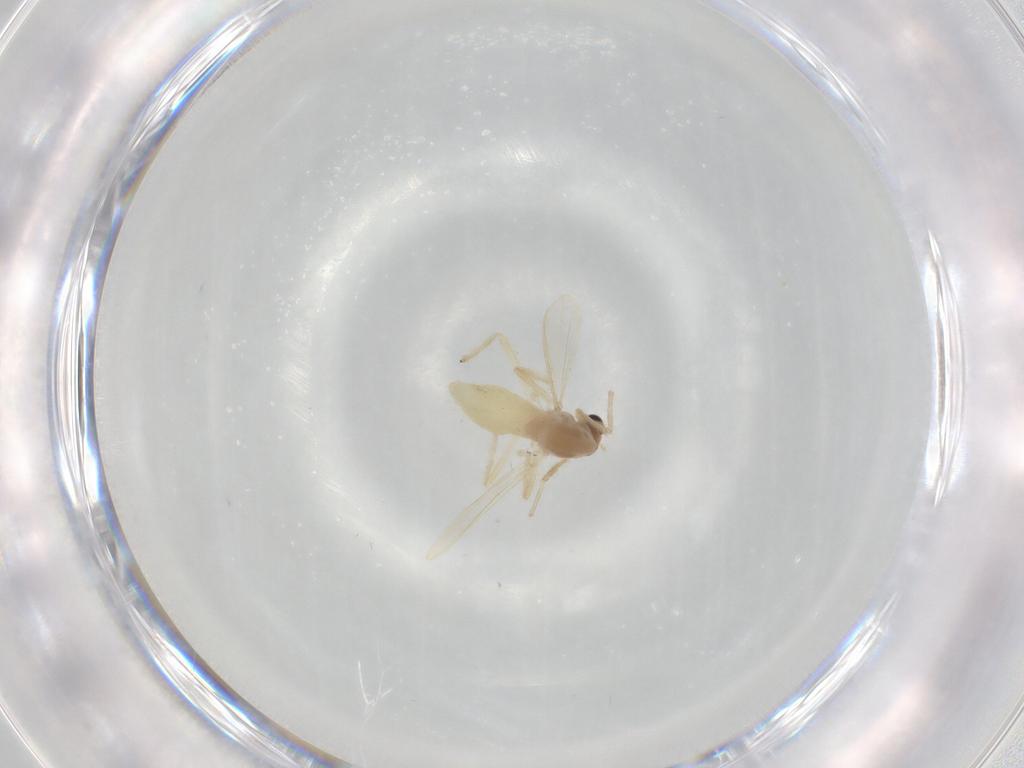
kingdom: Animalia
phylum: Arthropoda
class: Insecta
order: Diptera
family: Chironomidae
